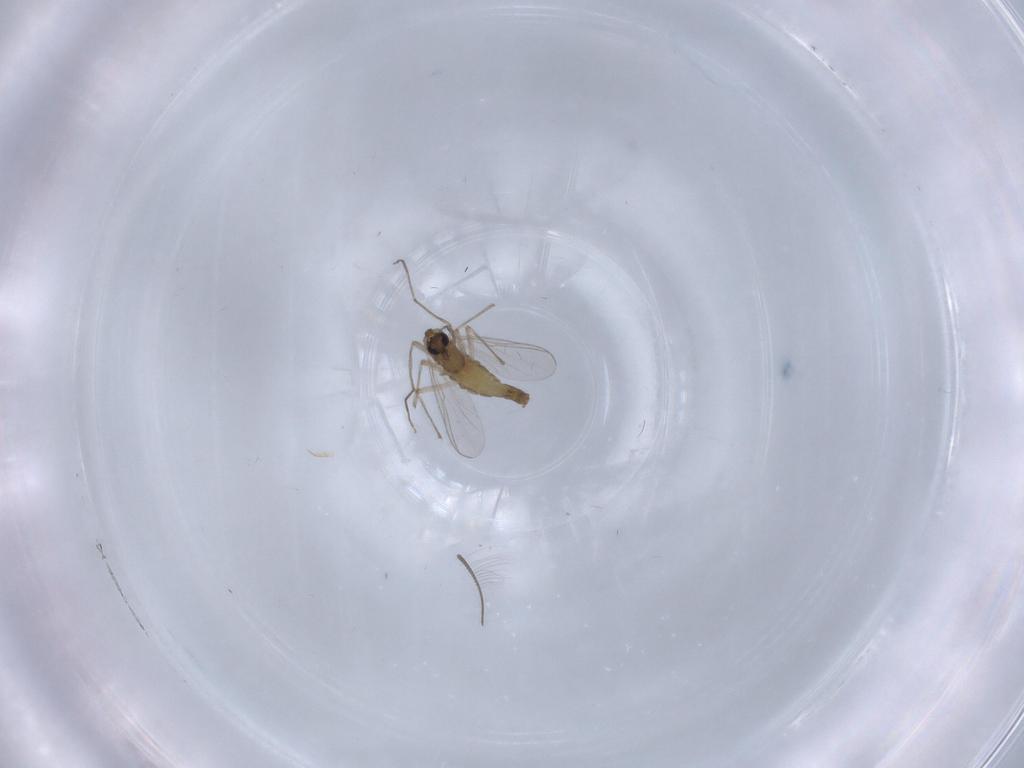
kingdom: Animalia
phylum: Arthropoda
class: Insecta
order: Diptera
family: Chironomidae
